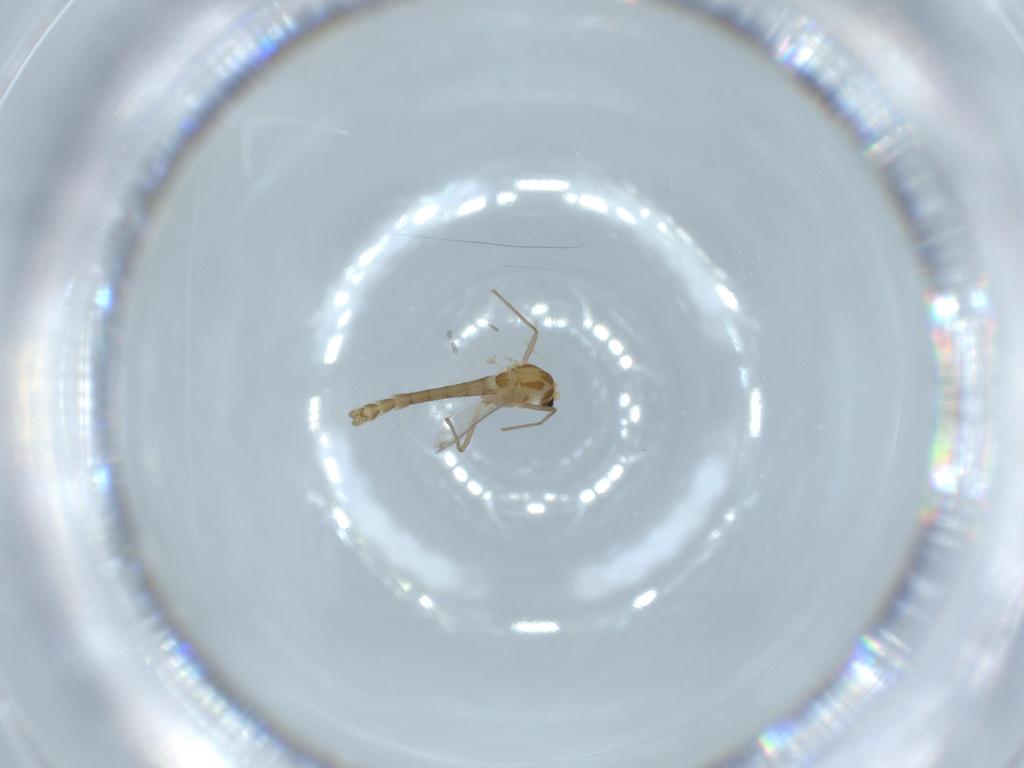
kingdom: Animalia
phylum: Arthropoda
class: Insecta
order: Diptera
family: Chironomidae
